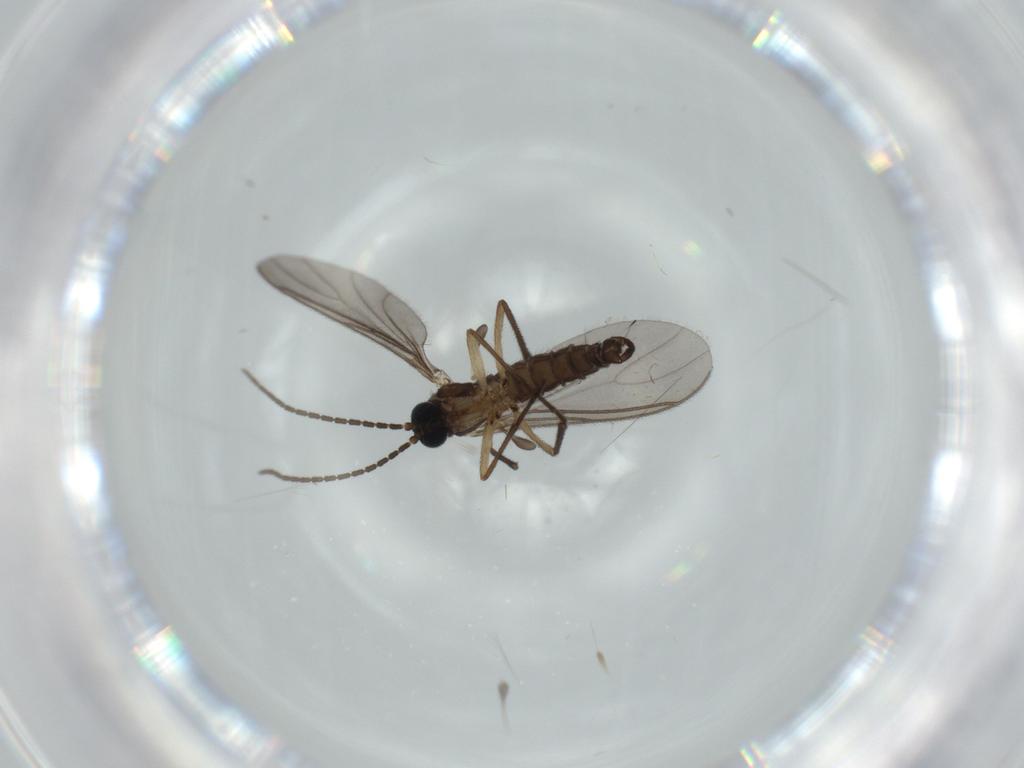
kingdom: Animalia
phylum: Arthropoda
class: Insecta
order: Diptera
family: Sciaridae
